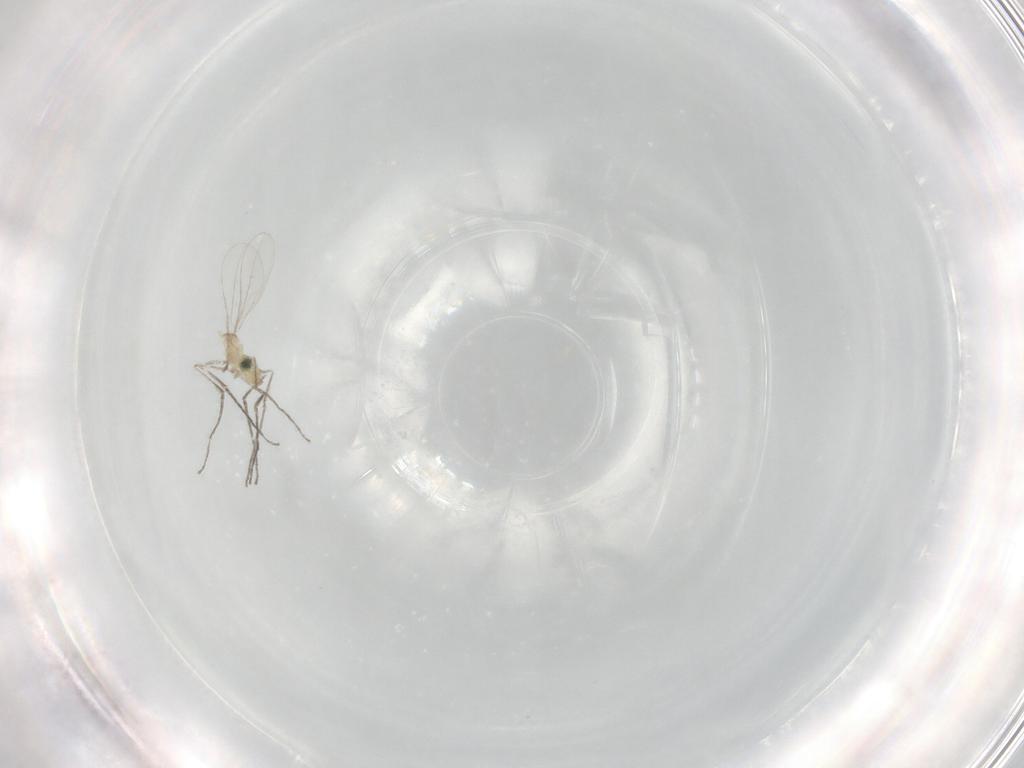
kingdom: Animalia
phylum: Arthropoda
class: Insecta
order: Diptera
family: Cecidomyiidae
